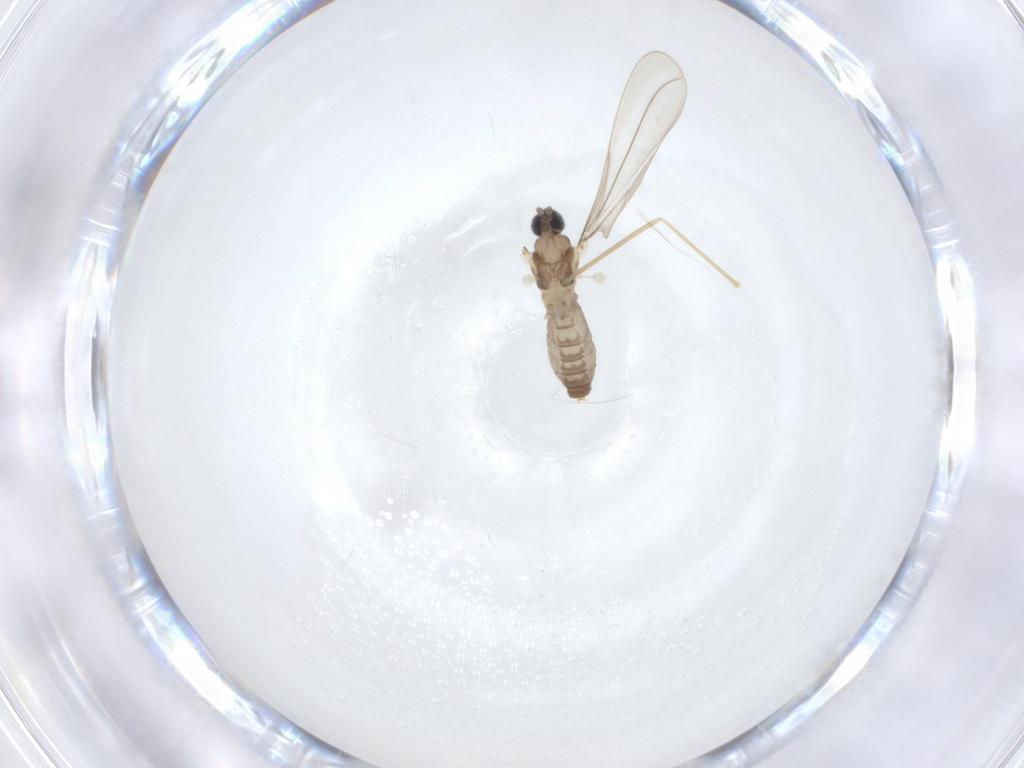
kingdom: Animalia
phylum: Arthropoda
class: Insecta
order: Diptera
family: Cecidomyiidae
